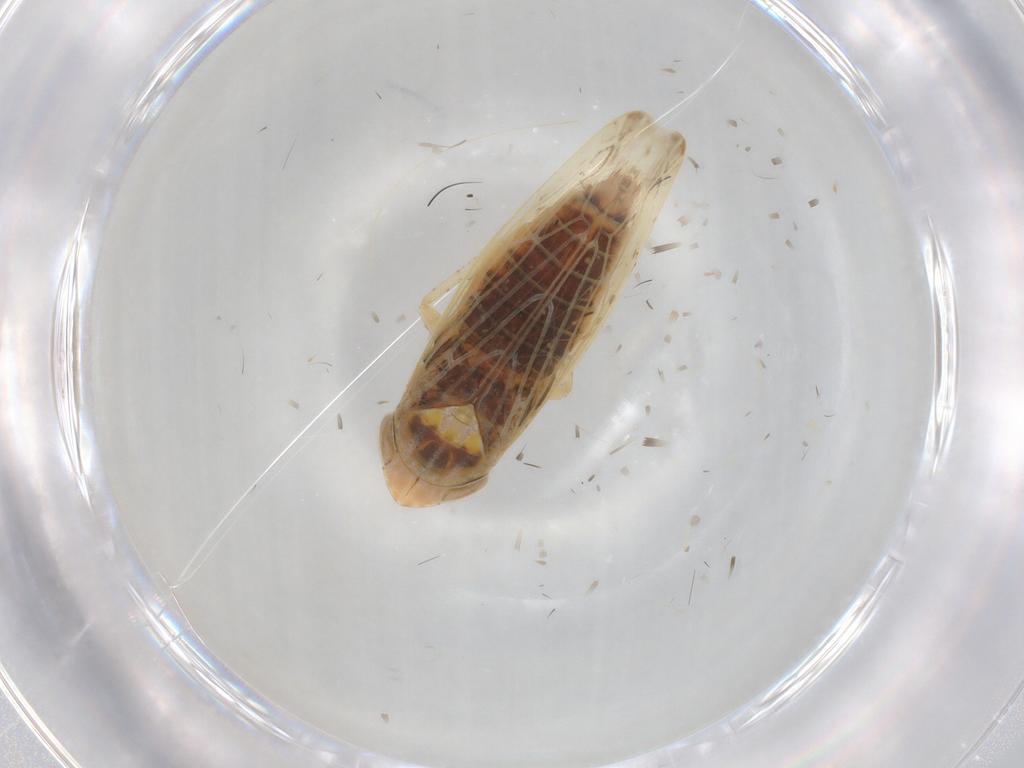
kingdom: Animalia
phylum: Arthropoda
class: Insecta
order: Hemiptera
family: Cicadellidae
